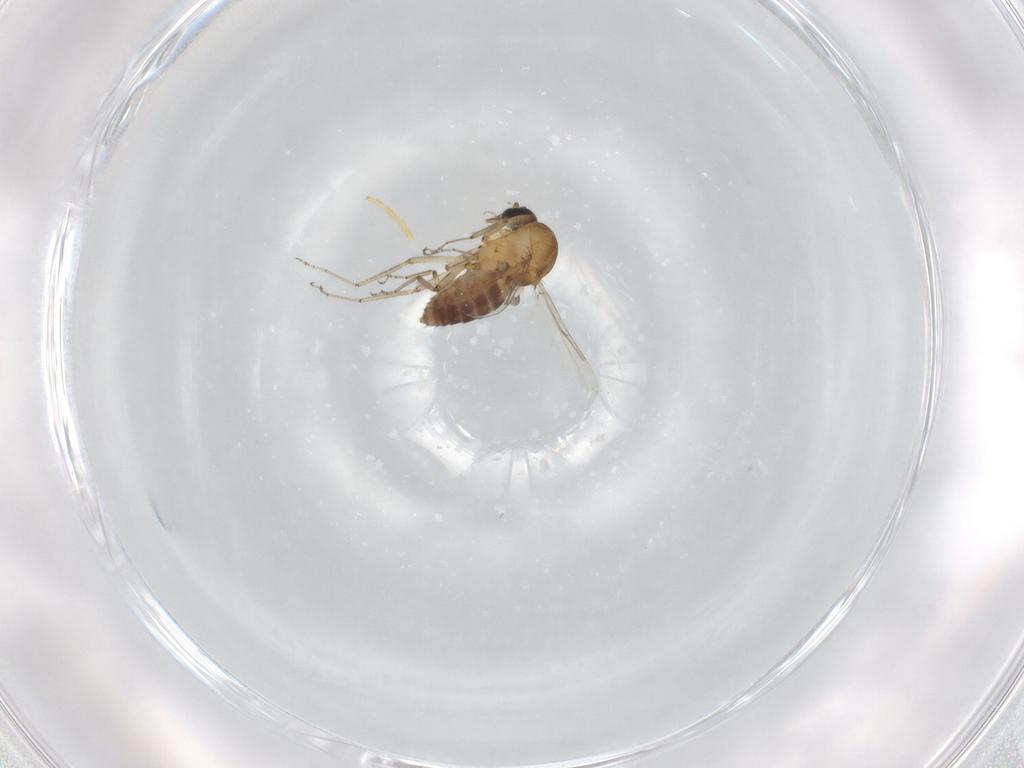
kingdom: Animalia
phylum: Arthropoda
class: Insecta
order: Diptera
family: Ceratopogonidae
